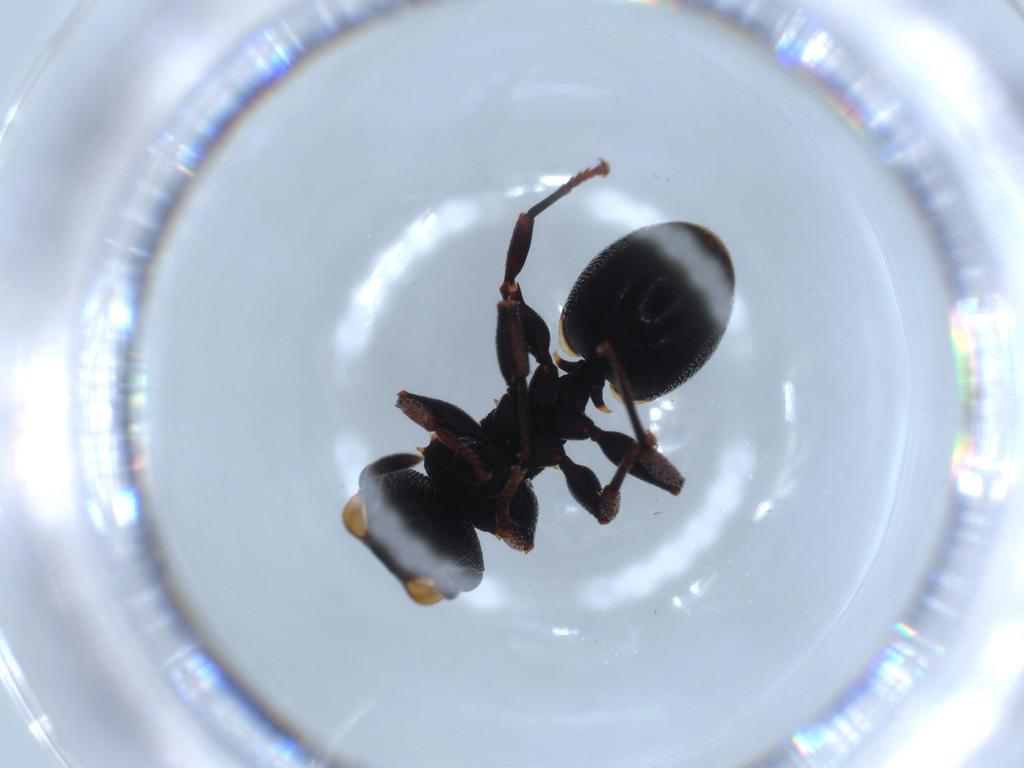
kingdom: Animalia
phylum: Arthropoda
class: Insecta
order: Hymenoptera
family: Formicidae
